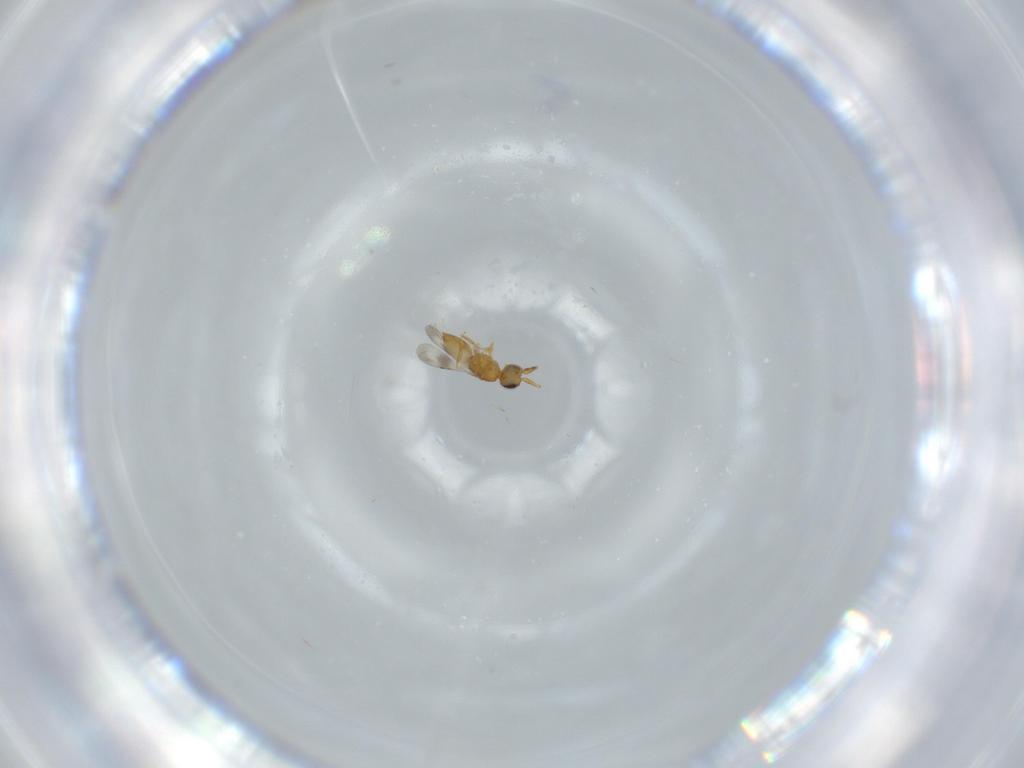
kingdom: Animalia
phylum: Arthropoda
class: Insecta
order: Hymenoptera
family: Ceraphronidae
